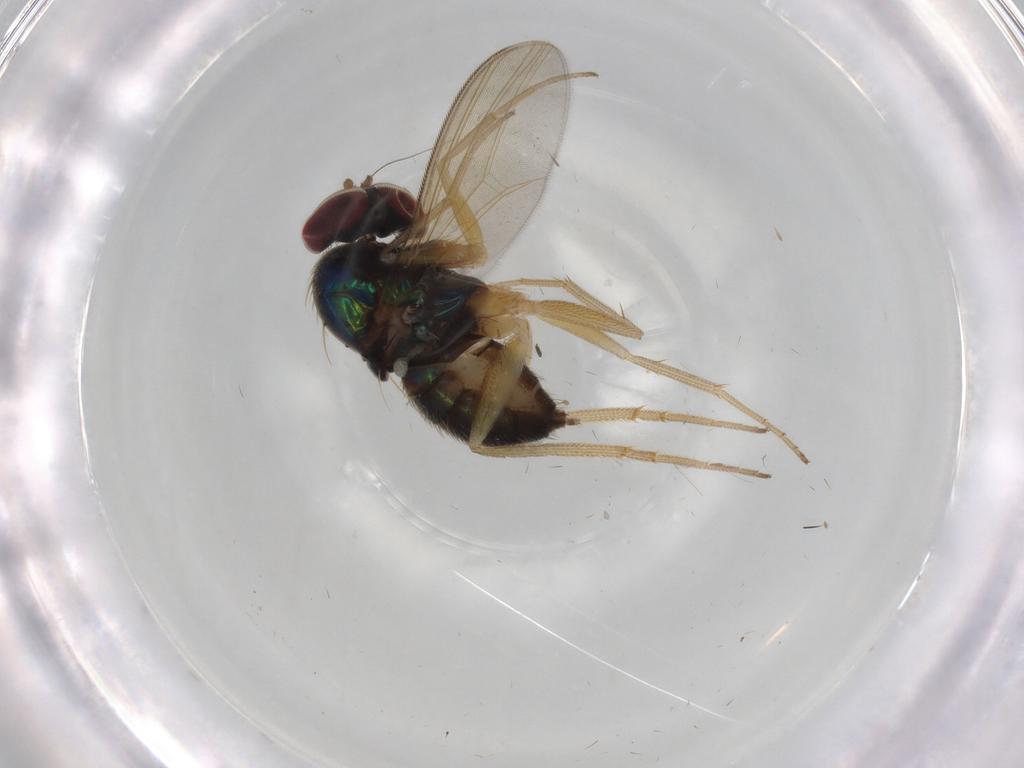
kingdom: Animalia
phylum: Arthropoda
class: Insecta
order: Diptera
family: Dolichopodidae
